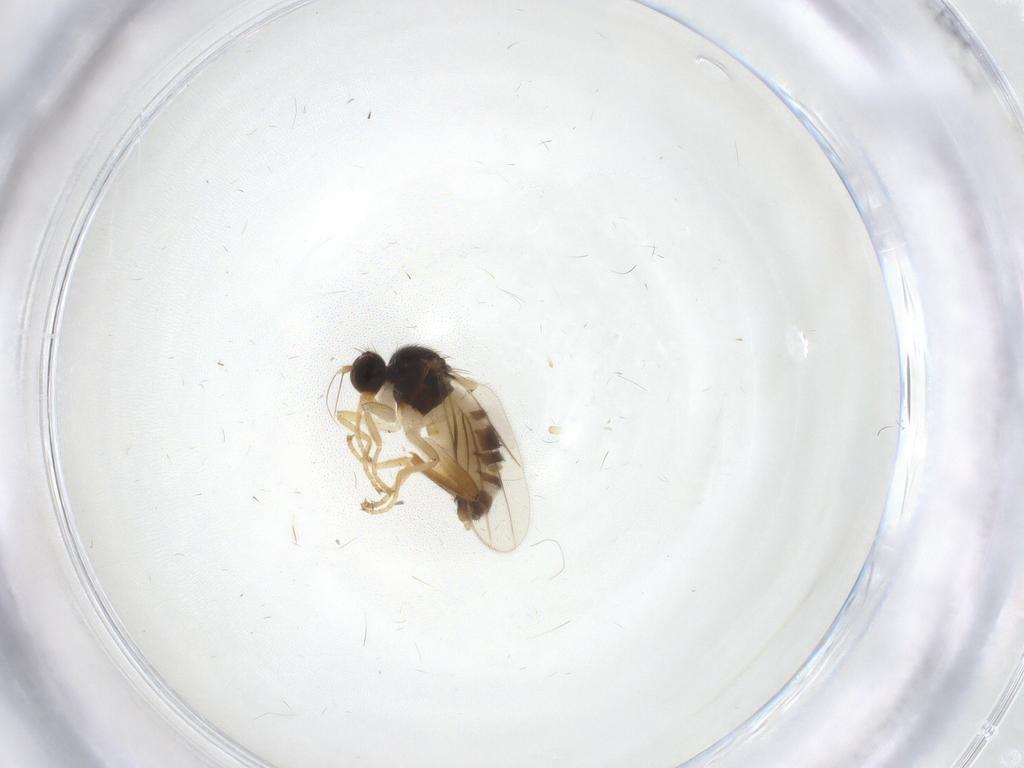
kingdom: Animalia
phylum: Arthropoda
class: Insecta
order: Diptera
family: Hybotidae
